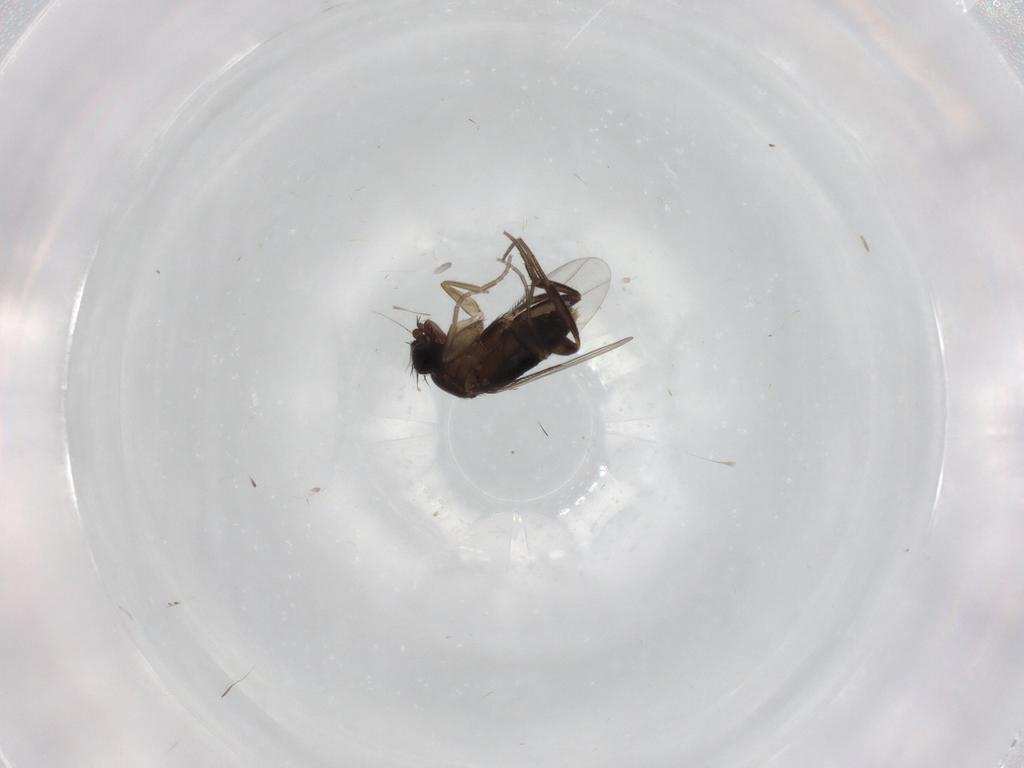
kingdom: Animalia
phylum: Arthropoda
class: Insecta
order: Diptera
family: Phoridae
